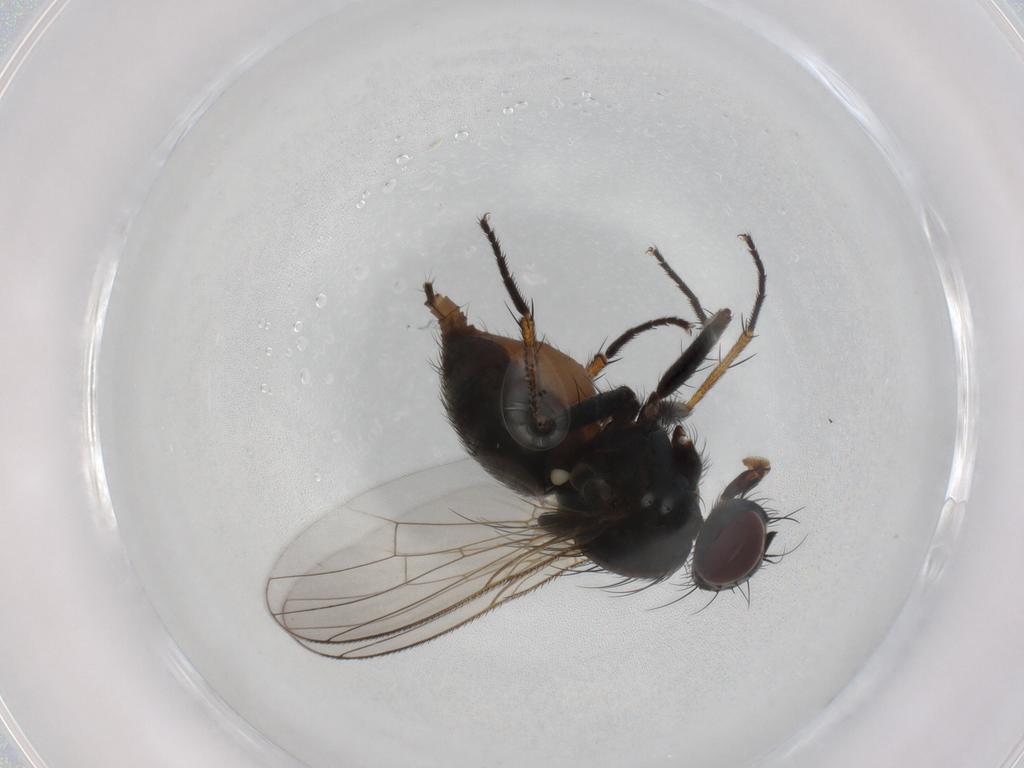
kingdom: Animalia
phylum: Arthropoda
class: Insecta
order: Diptera
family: Muscidae
